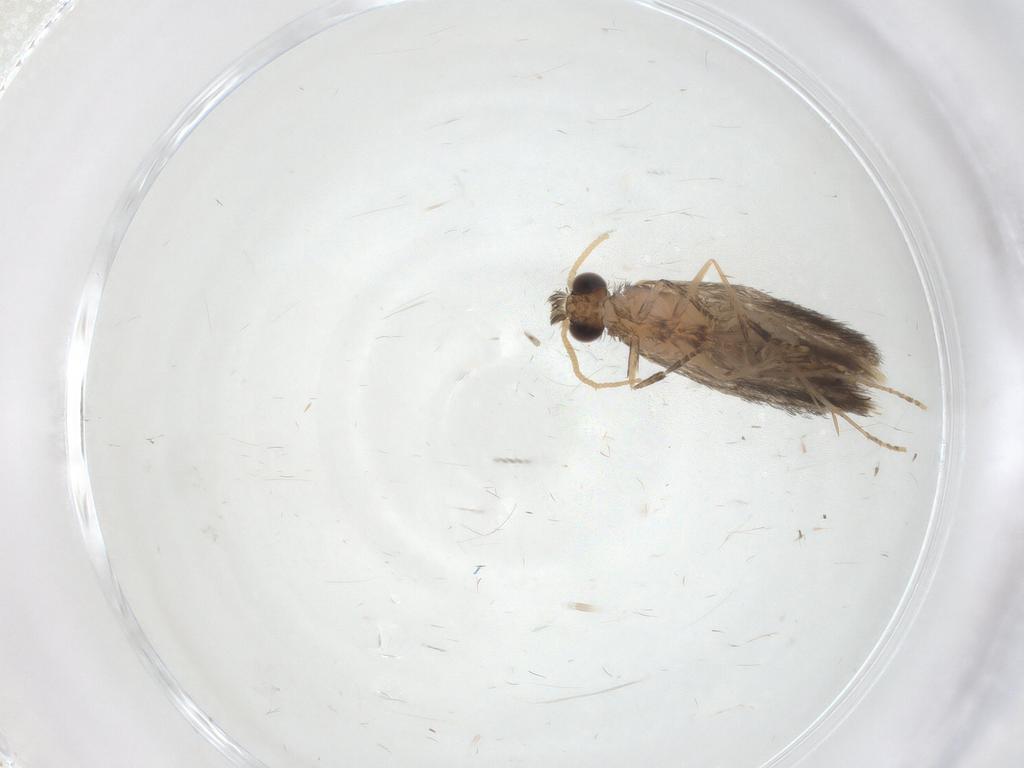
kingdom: Animalia
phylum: Arthropoda
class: Insecta
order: Trichoptera
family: Hydroptilidae
